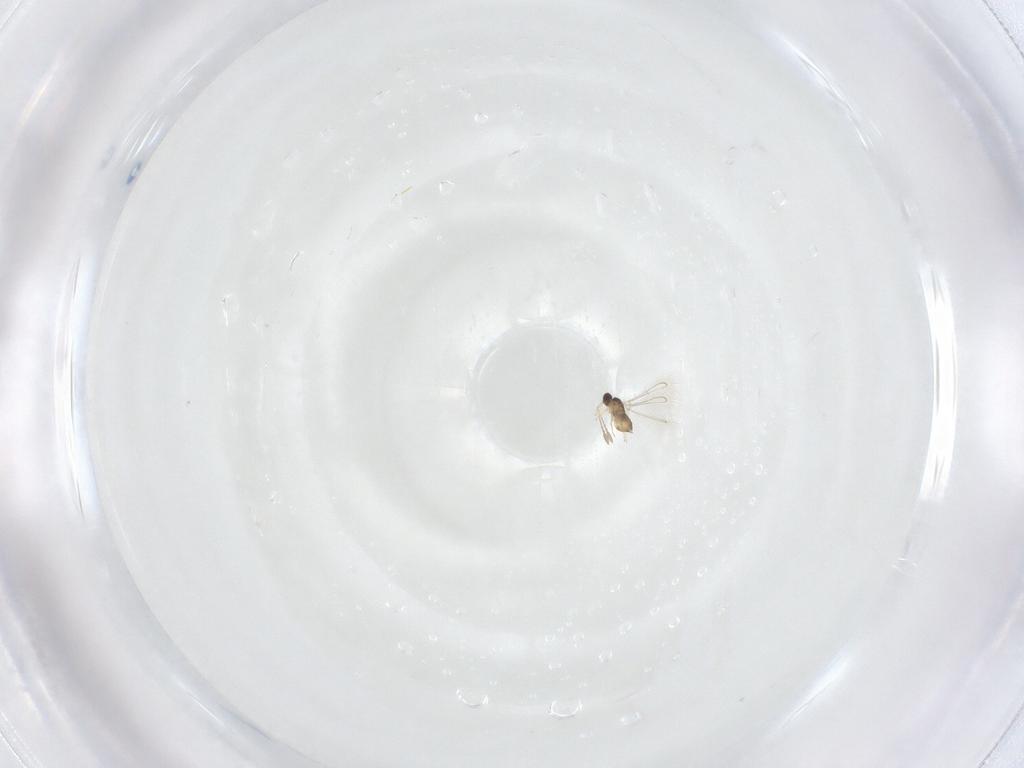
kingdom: Animalia
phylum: Arthropoda
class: Insecta
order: Hymenoptera
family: Mymaridae
